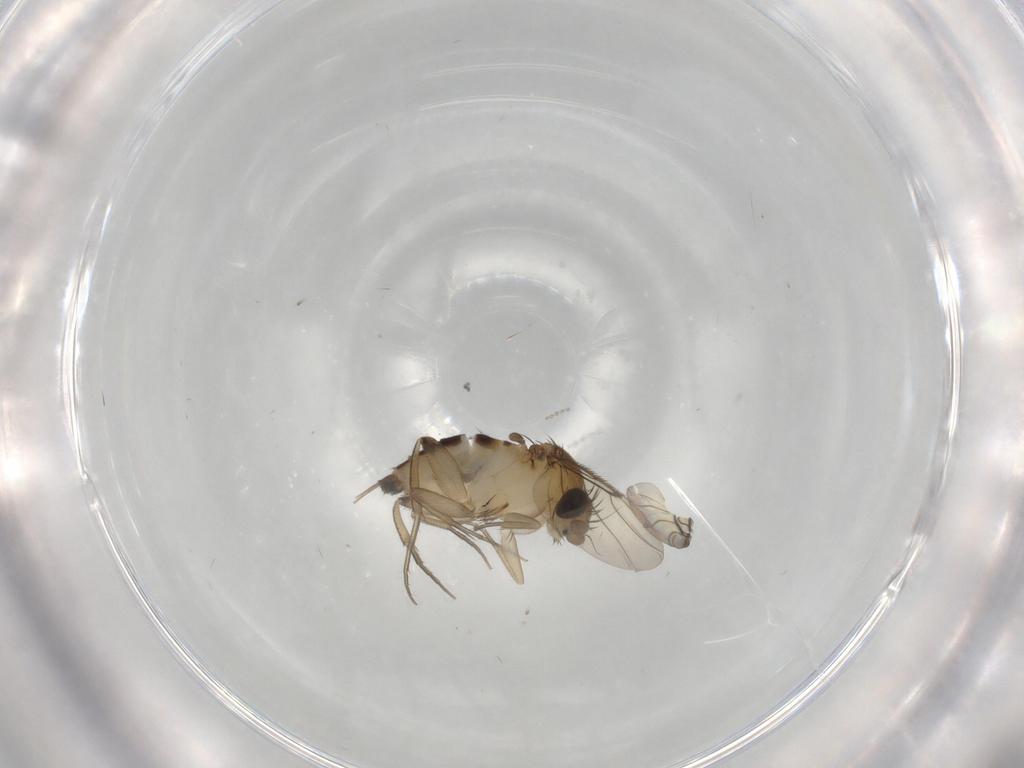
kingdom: Animalia
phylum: Arthropoda
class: Insecta
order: Diptera
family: Phoridae
